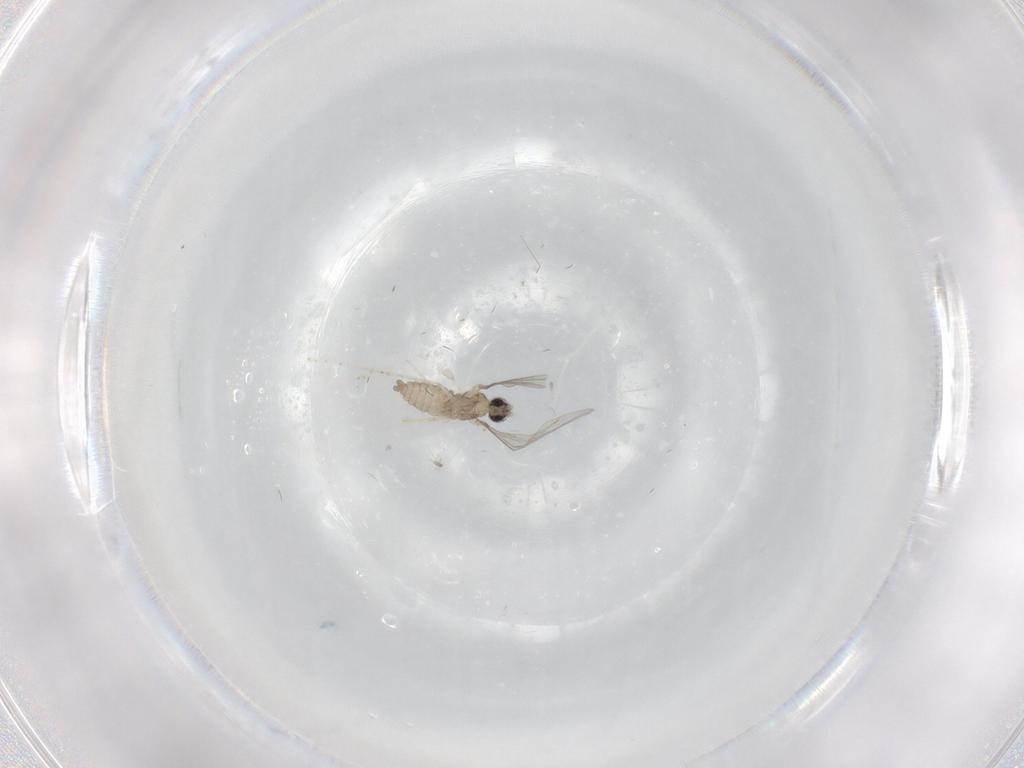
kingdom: Animalia
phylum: Arthropoda
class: Insecta
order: Diptera
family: Cecidomyiidae
